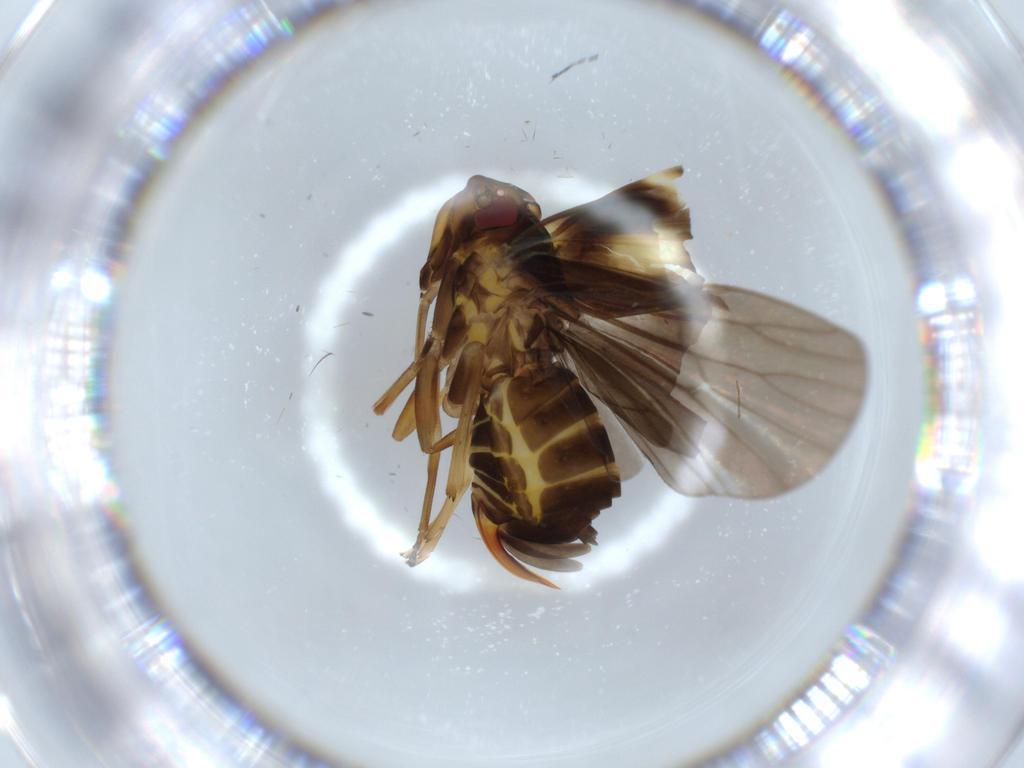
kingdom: Animalia
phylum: Arthropoda
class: Insecta
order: Hemiptera
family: Cixiidae
